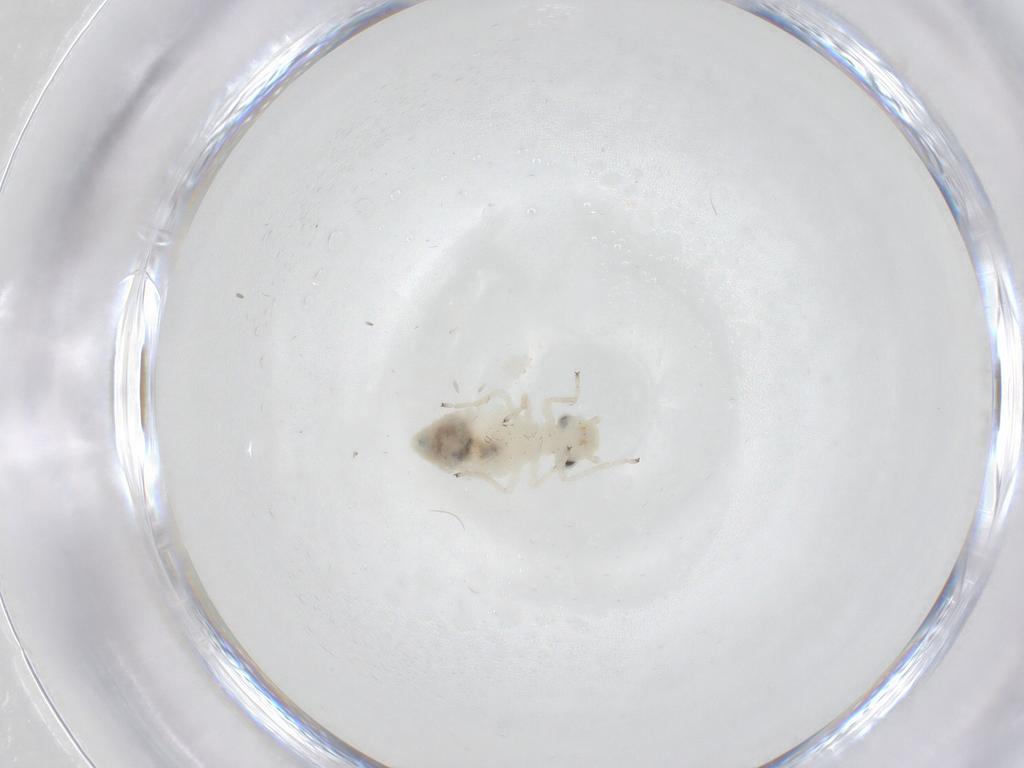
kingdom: Animalia
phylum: Arthropoda
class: Insecta
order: Psocodea
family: Caeciliusidae
